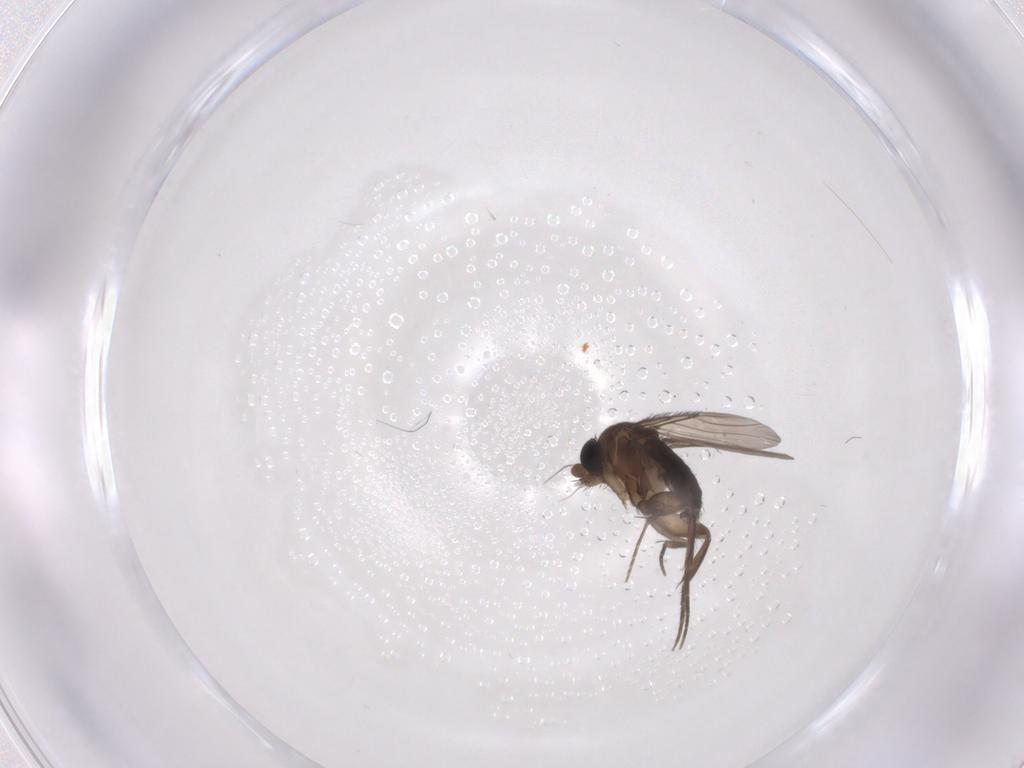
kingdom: Animalia
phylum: Arthropoda
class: Insecta
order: Diptera
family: Phoridae
